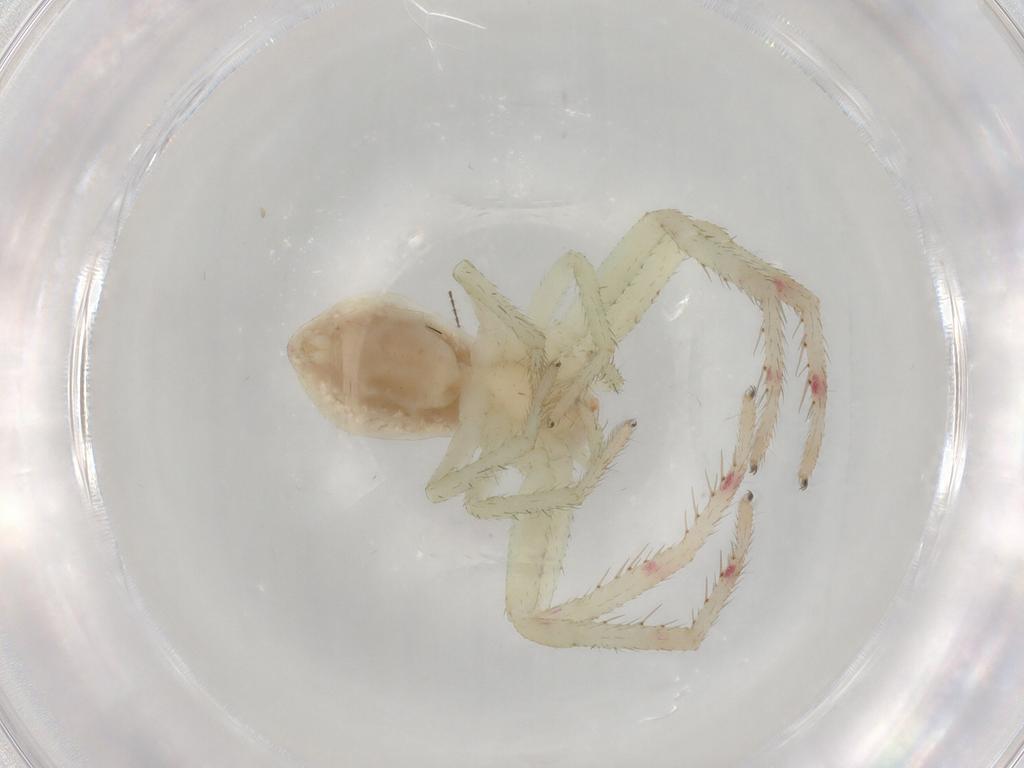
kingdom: Animalia
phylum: Arthropoda
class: Arachnida
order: Araneae
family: Thomisidae
